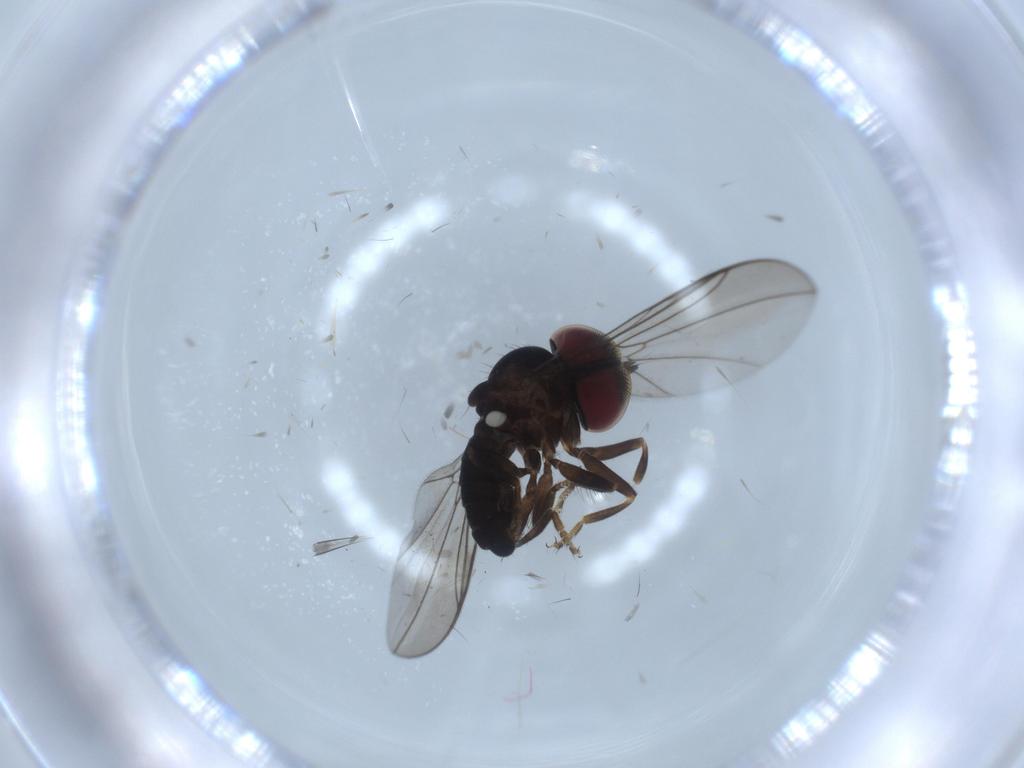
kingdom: Animalia
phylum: Arthropoda
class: Insecta
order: Diptera
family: Pipunculidae
